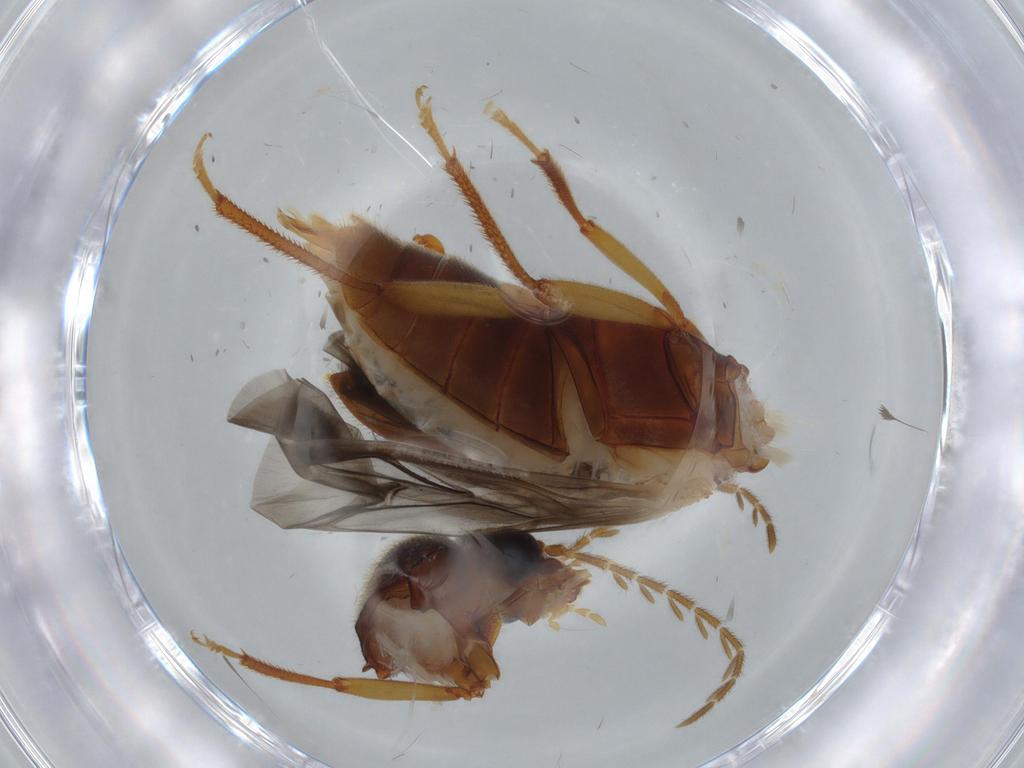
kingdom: Animalia
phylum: Arthropoda
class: Insecta
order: Coleoptera
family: Ptilodactylidae
